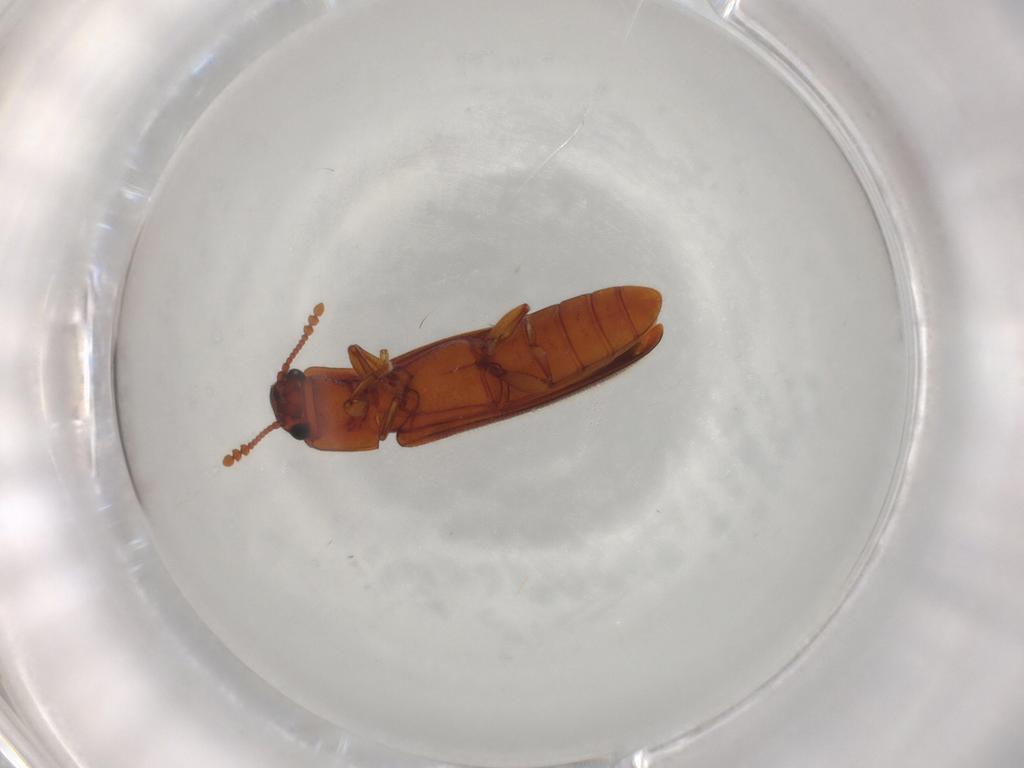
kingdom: Animalia
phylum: Arthropoda
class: Insecta
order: Coleoptera
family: Erotylidae
